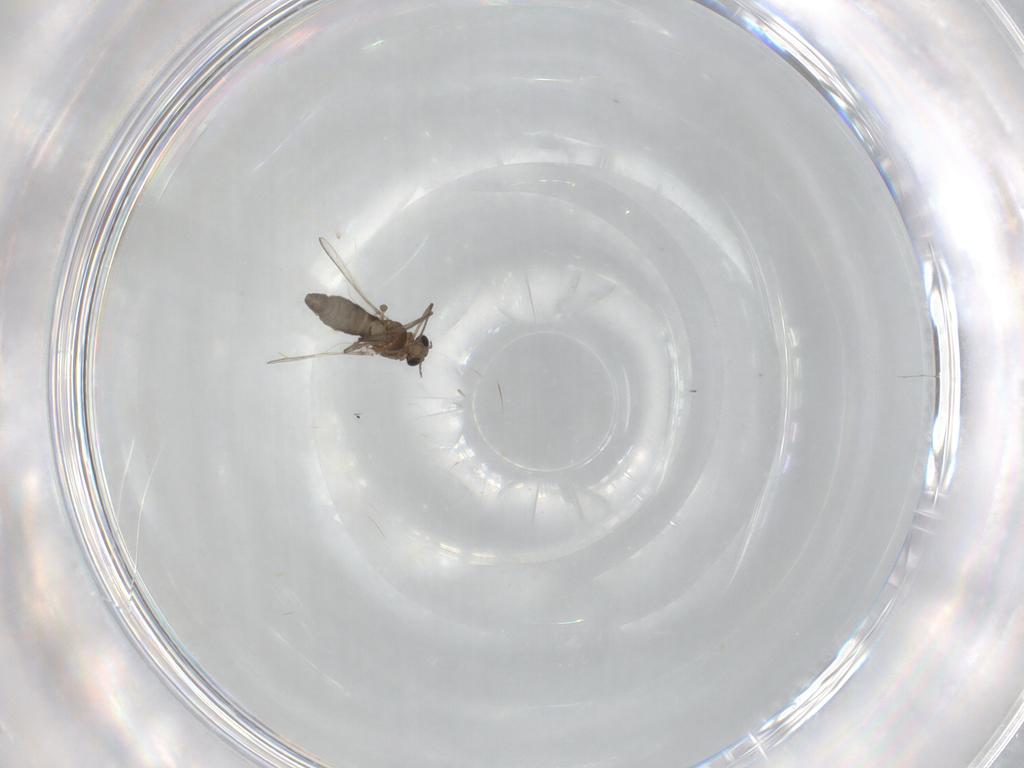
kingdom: Animalia
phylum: Arthropoda
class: Insecta
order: Diptera
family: Chironomidae
